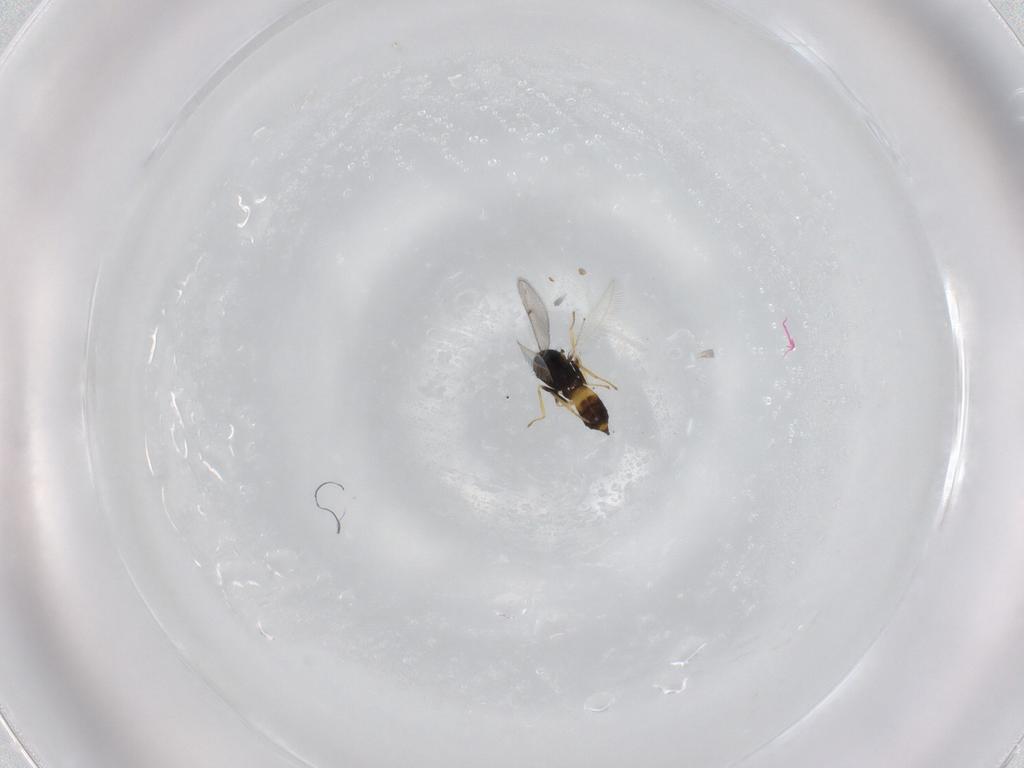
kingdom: Animalia
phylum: Arthropoda
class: Insecta
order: Hymenoptera
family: Eulophidae
